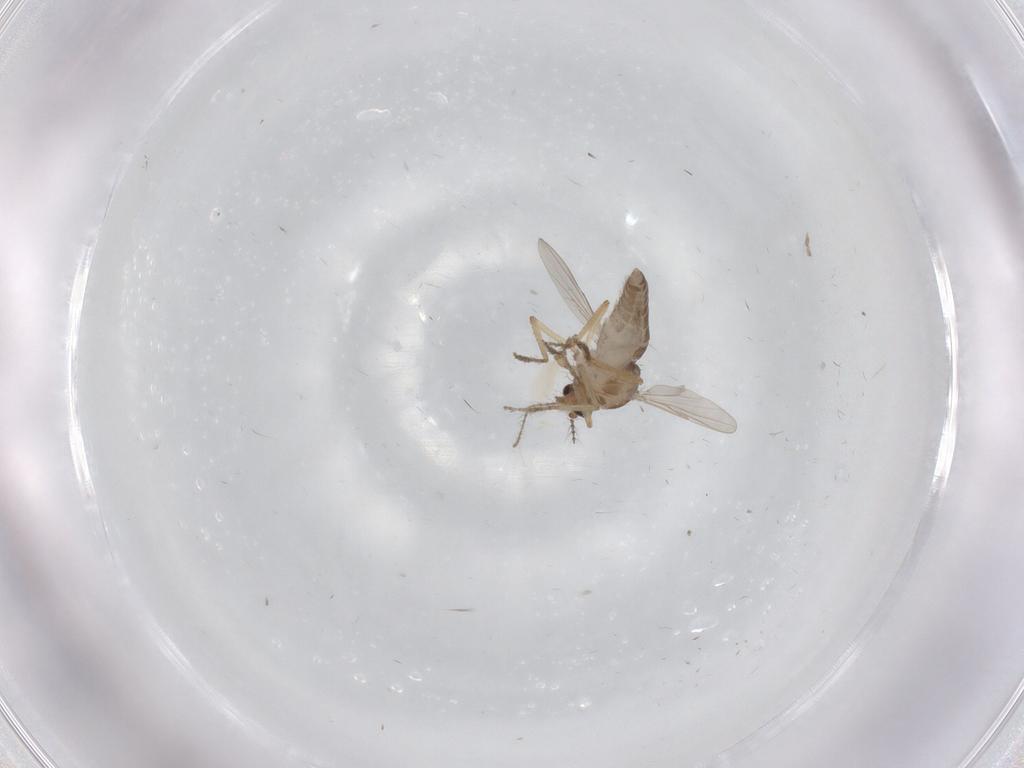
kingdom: Animalia
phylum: Arthropoda
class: Insecta
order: Diptera
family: Ceratopogonidae
